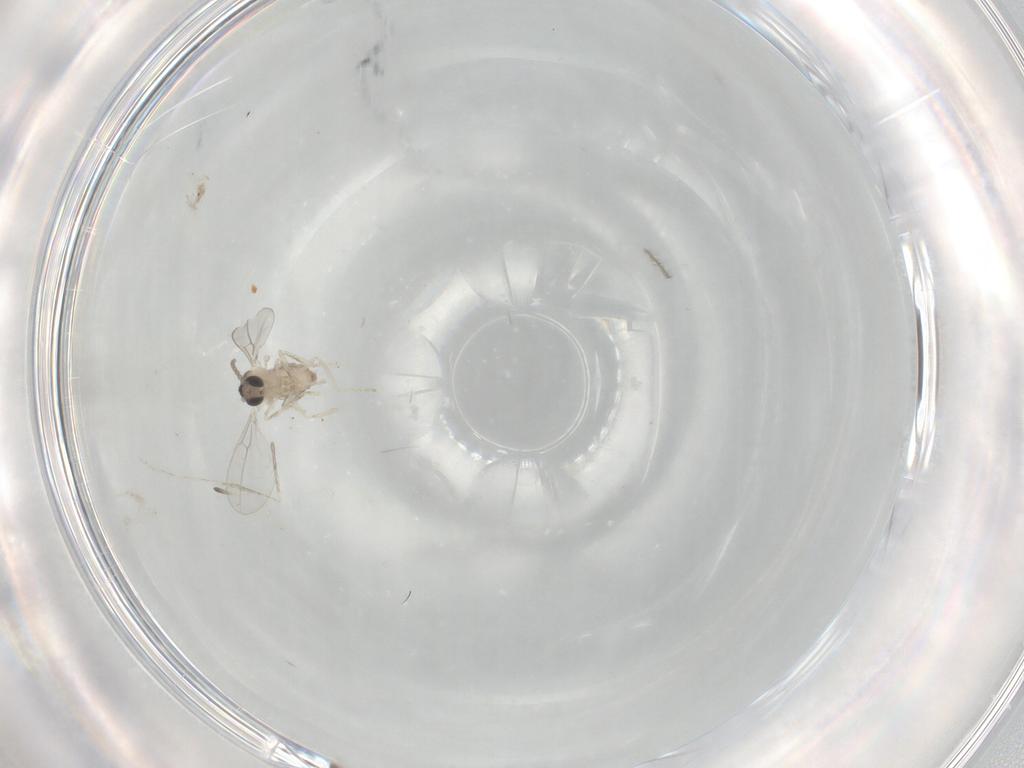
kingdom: Animalia
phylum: Arthropoda
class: Insecta
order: Diptera
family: Psychodidae
